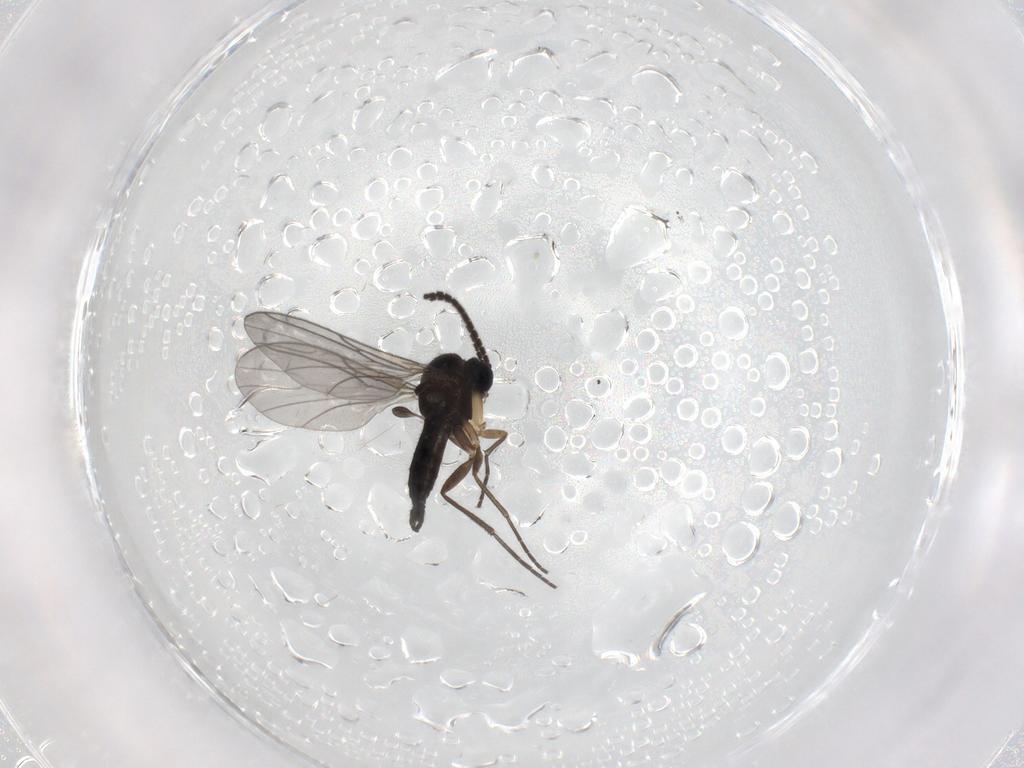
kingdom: Animalia
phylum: Arthropoda
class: Insecta
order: Diptera
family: Sciaridae
